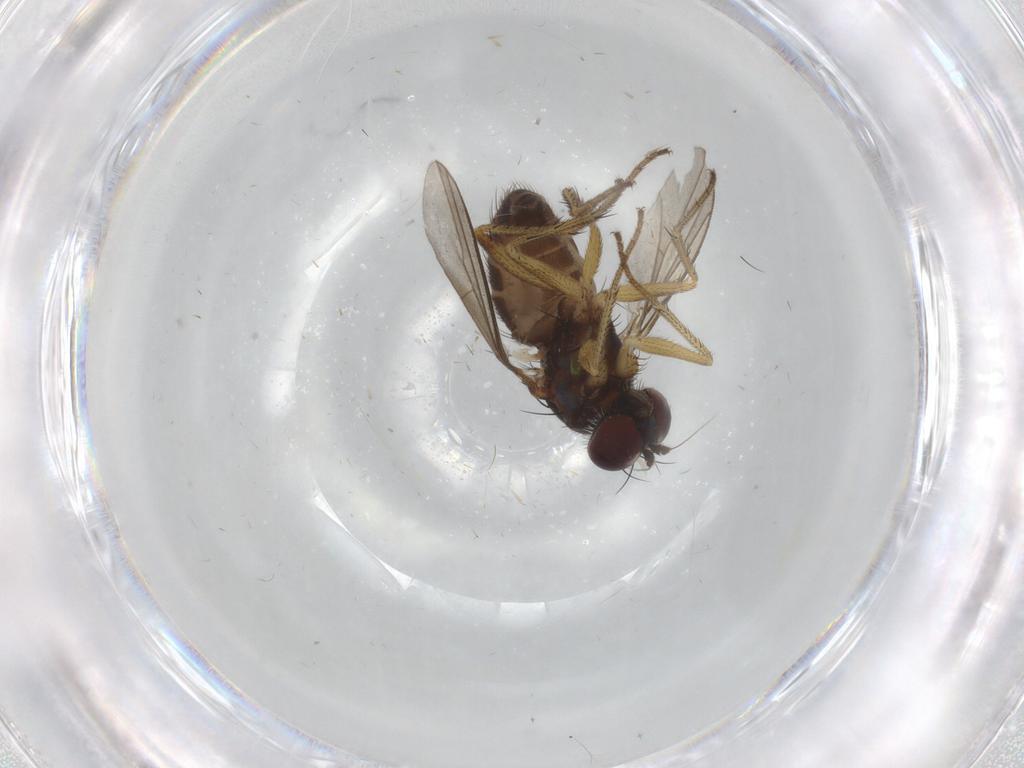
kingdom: Animalia
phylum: Arthropoda
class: Insecta
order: Diptera
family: Dolichopodidae
